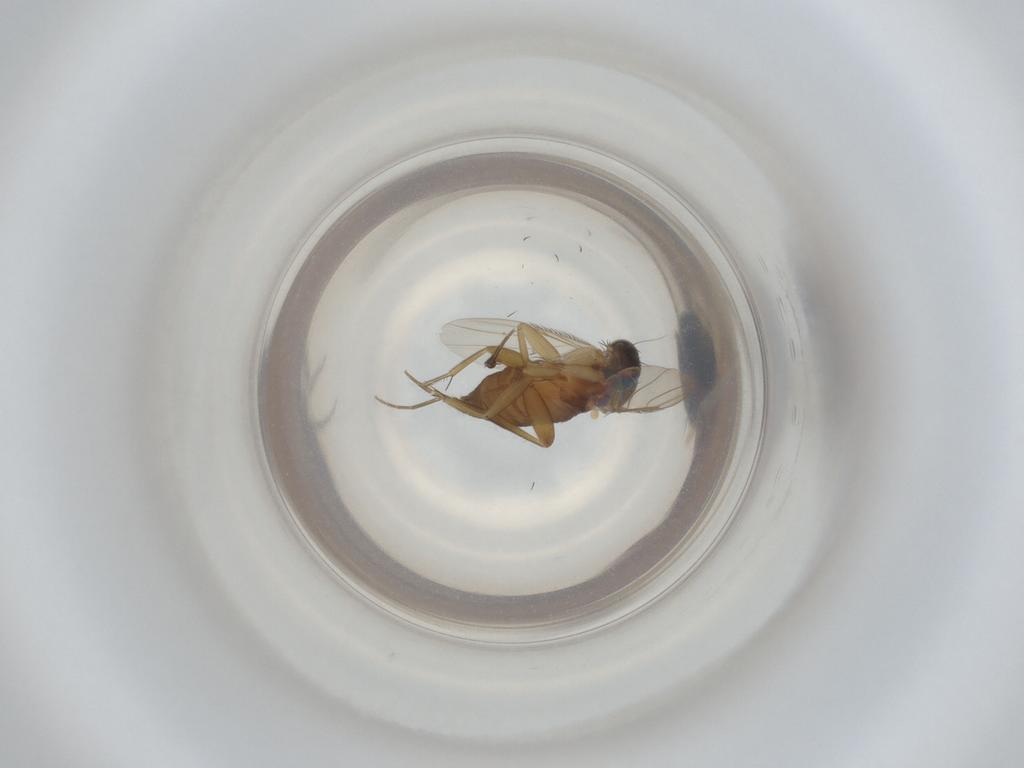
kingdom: Animalia
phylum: Arthropoda
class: Insecta
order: Diptera
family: Phoridae
